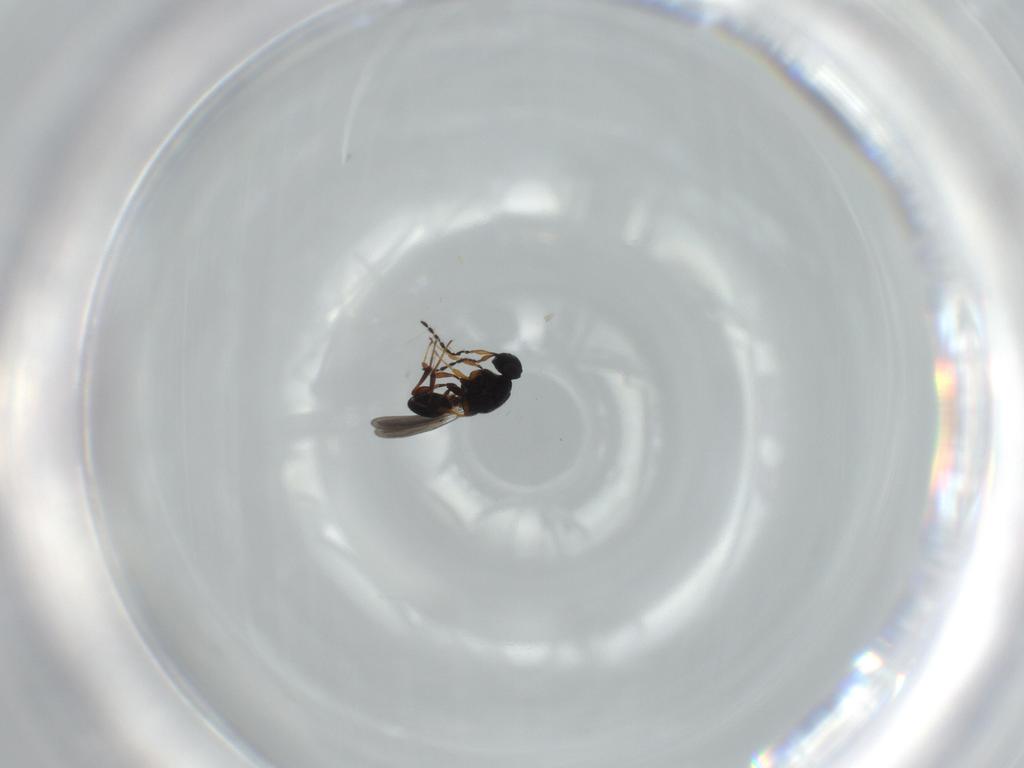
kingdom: Animalia
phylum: Arthropoda
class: Insecta
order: Hymenoptera
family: Platygastridae
